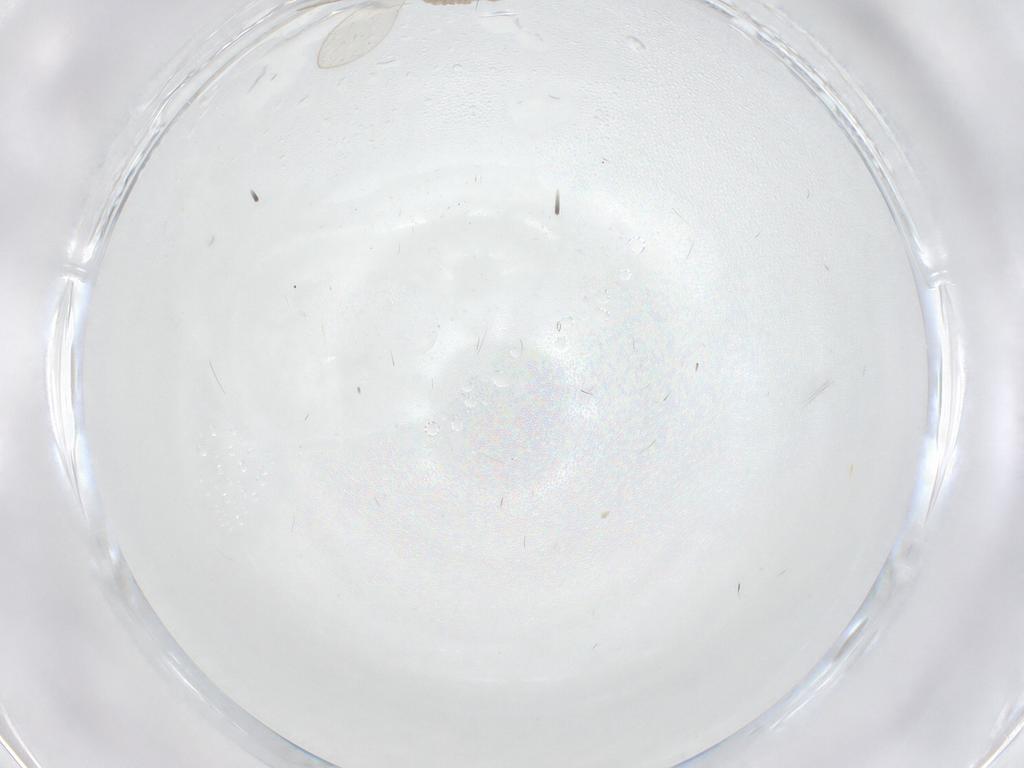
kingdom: Animalia
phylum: Arthropoda
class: Insecta
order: Diptera
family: Psychodidae
